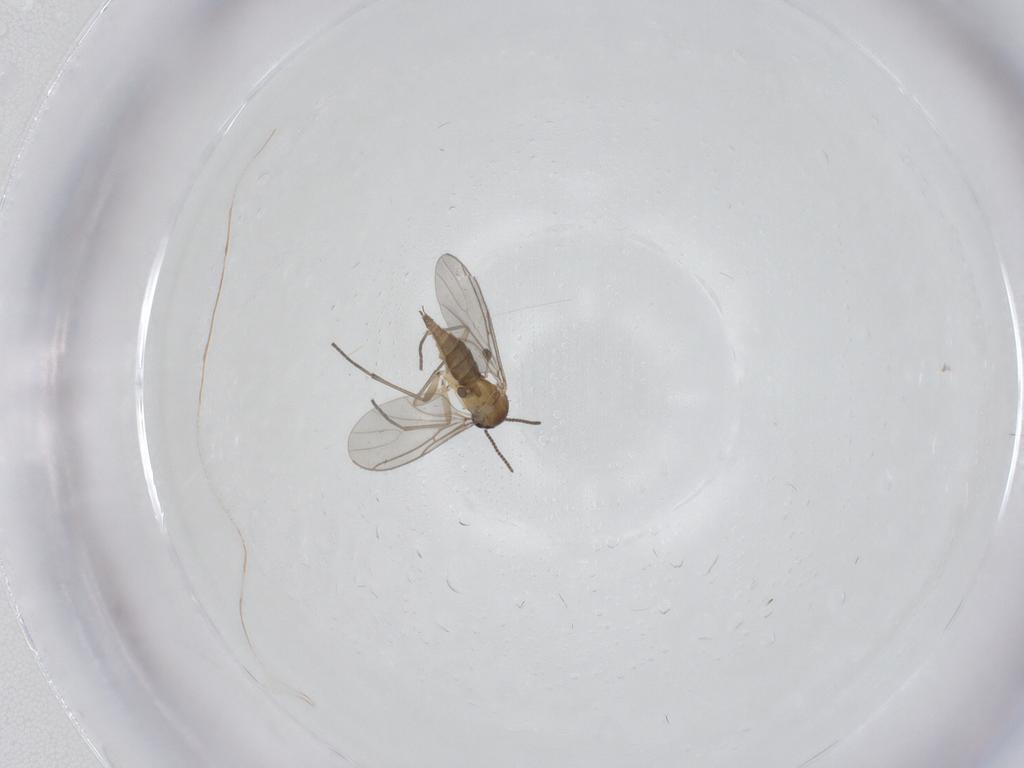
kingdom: Animalia
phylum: Arthropoda
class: Insecta
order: Diptera
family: Sciaridae
